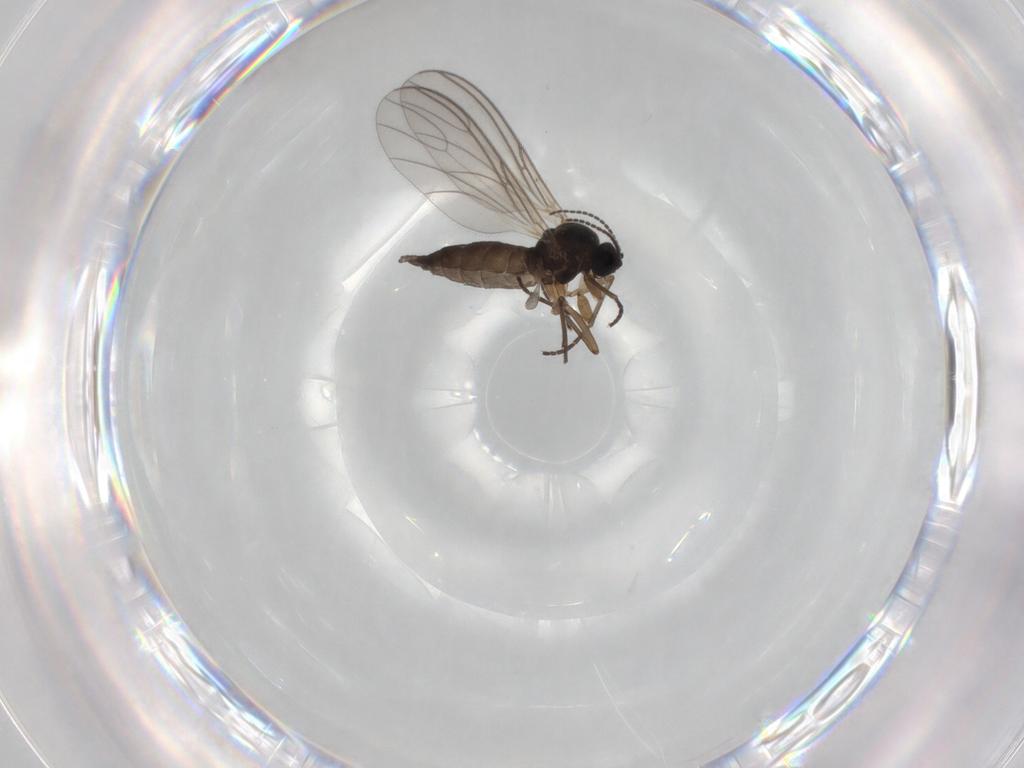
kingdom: Animalia
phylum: Arthropoda
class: Insecta
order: Diptera
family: Sciaridae
